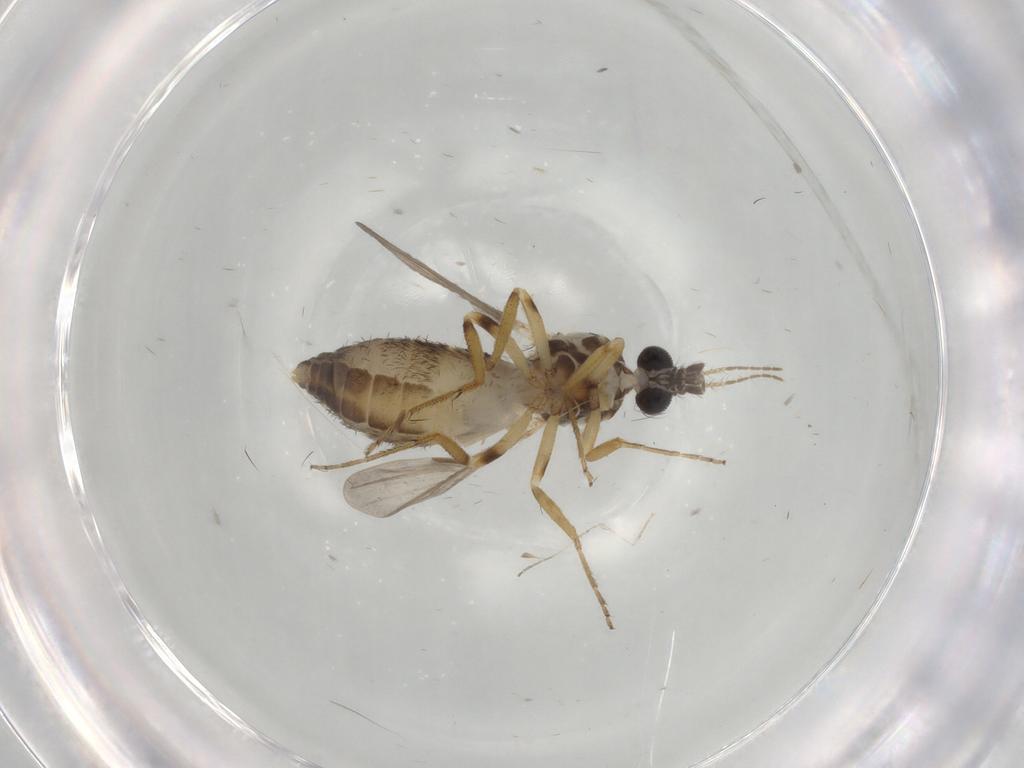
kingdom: Animalia
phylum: Arthropoda
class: Insecta
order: Diptera
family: Ceratopogonidae
